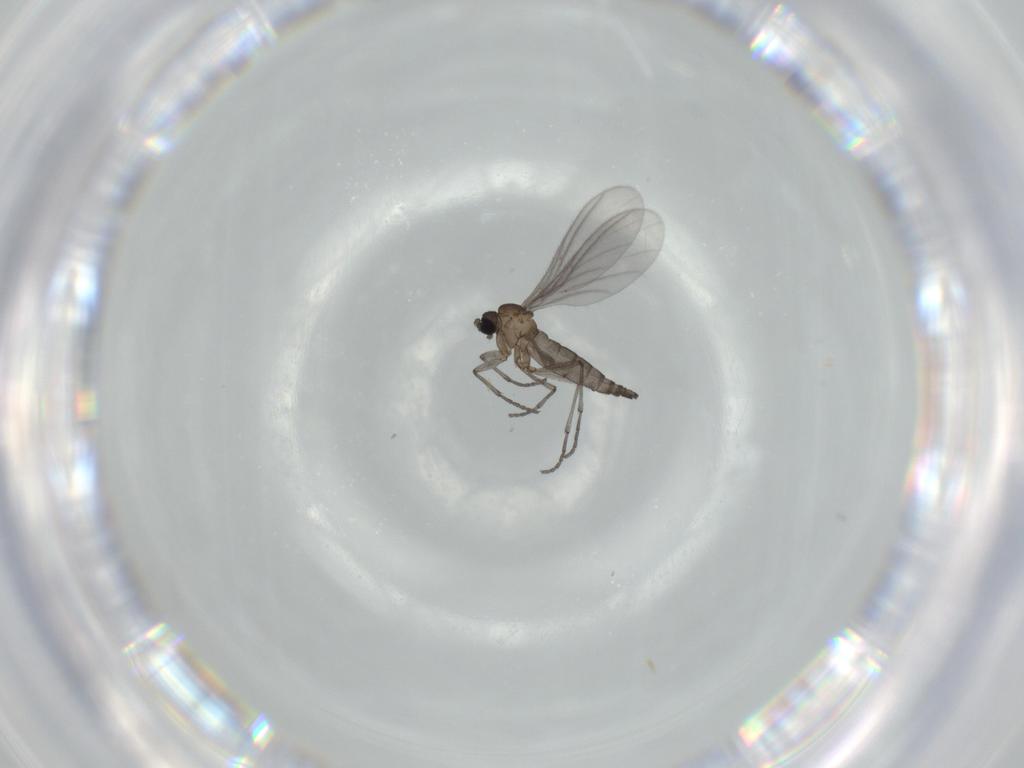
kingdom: Animalia
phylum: Arthropoda
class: Insecta
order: Diptera
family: Sciaridae
